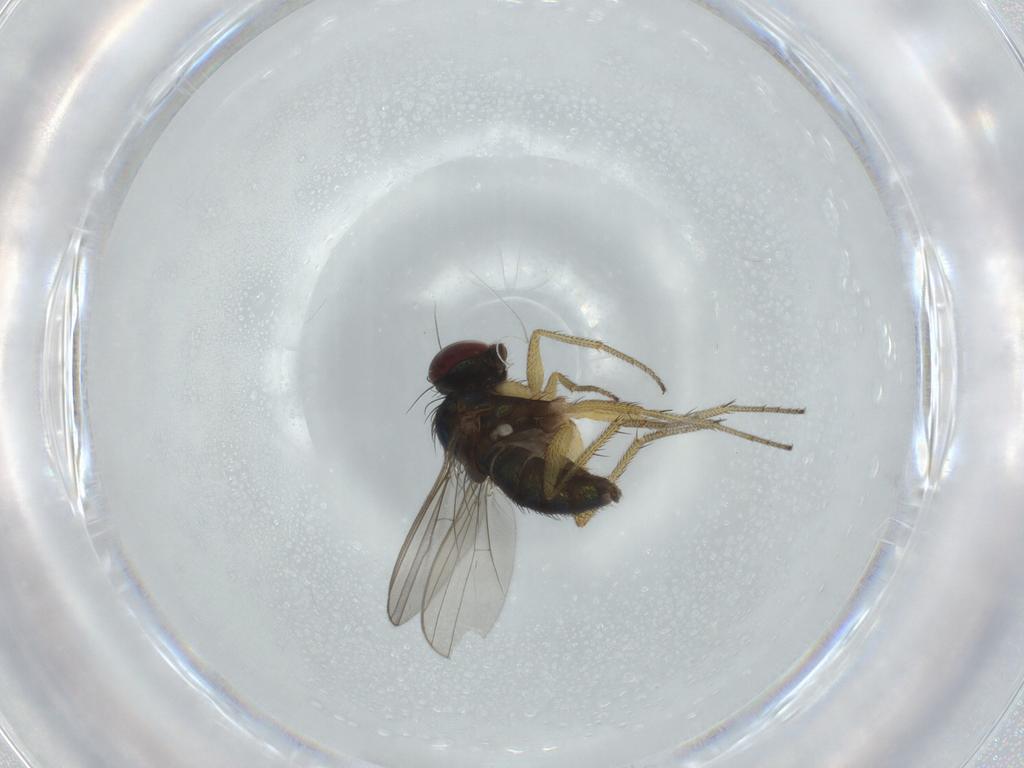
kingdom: Animalia
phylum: Arthropoda
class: Insecta
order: Diptera
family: Dolichopodidae
